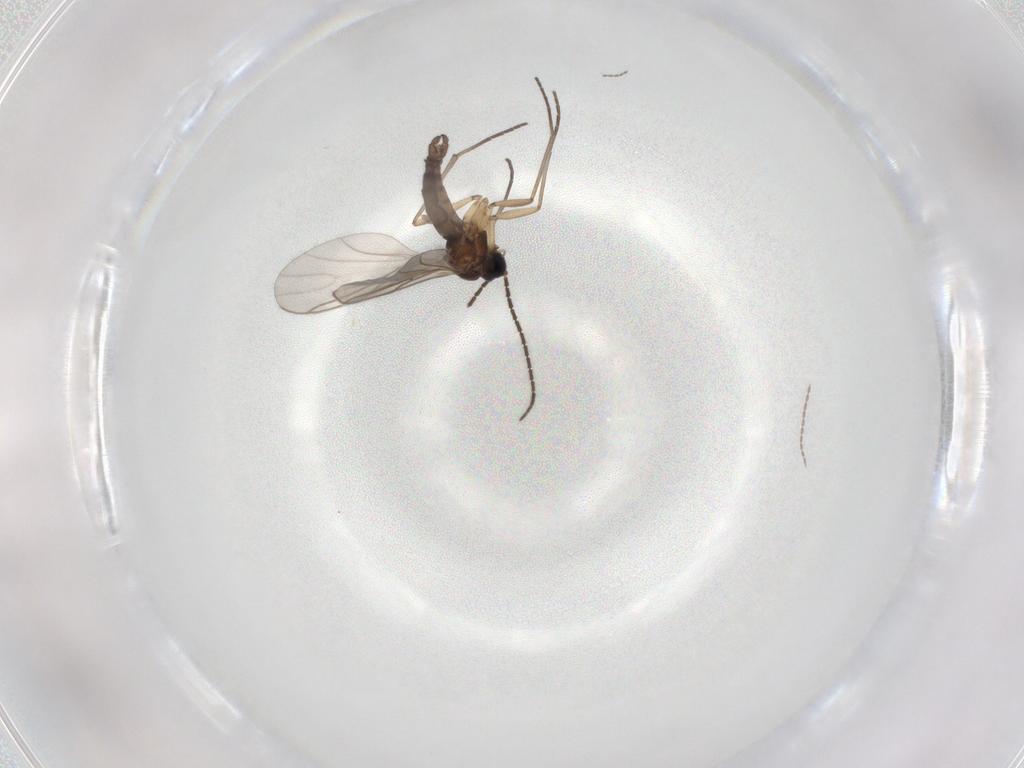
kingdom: Animalia
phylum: Arthropoda
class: Insecta
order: Diptera
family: Sciaridae
